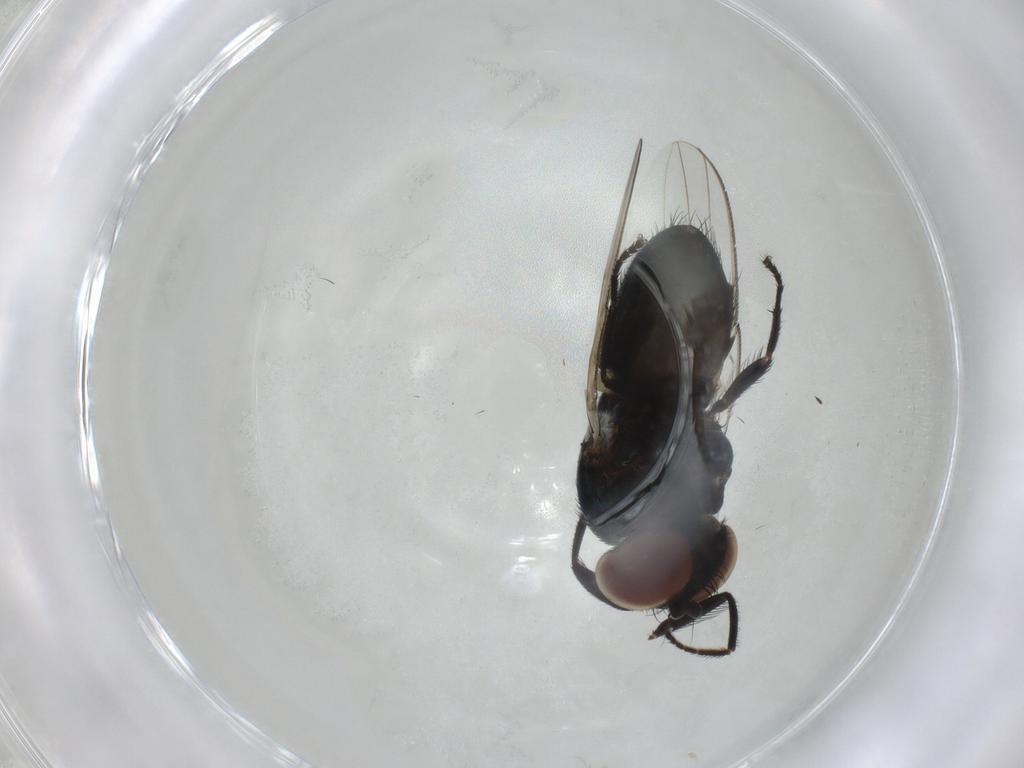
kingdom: Animalia
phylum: Arthropoda
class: Insecta
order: Diptera
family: Milichiidae
